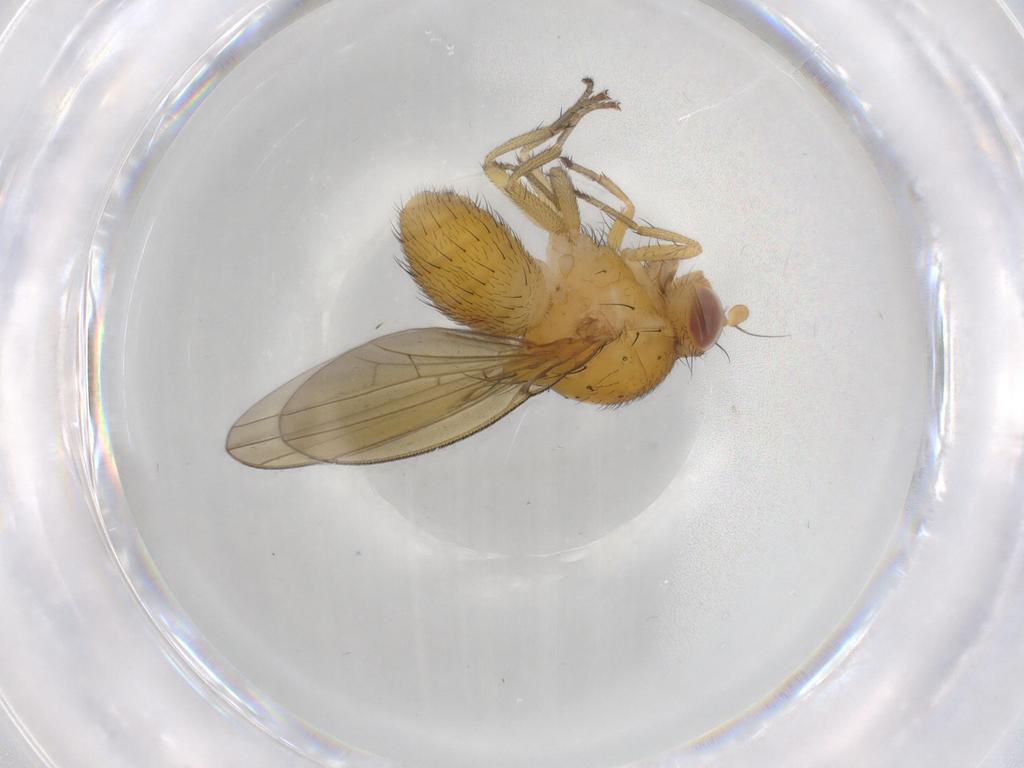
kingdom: Animalia
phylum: Arthropoda
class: Insecta
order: Diptera
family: Lauxaniidae
